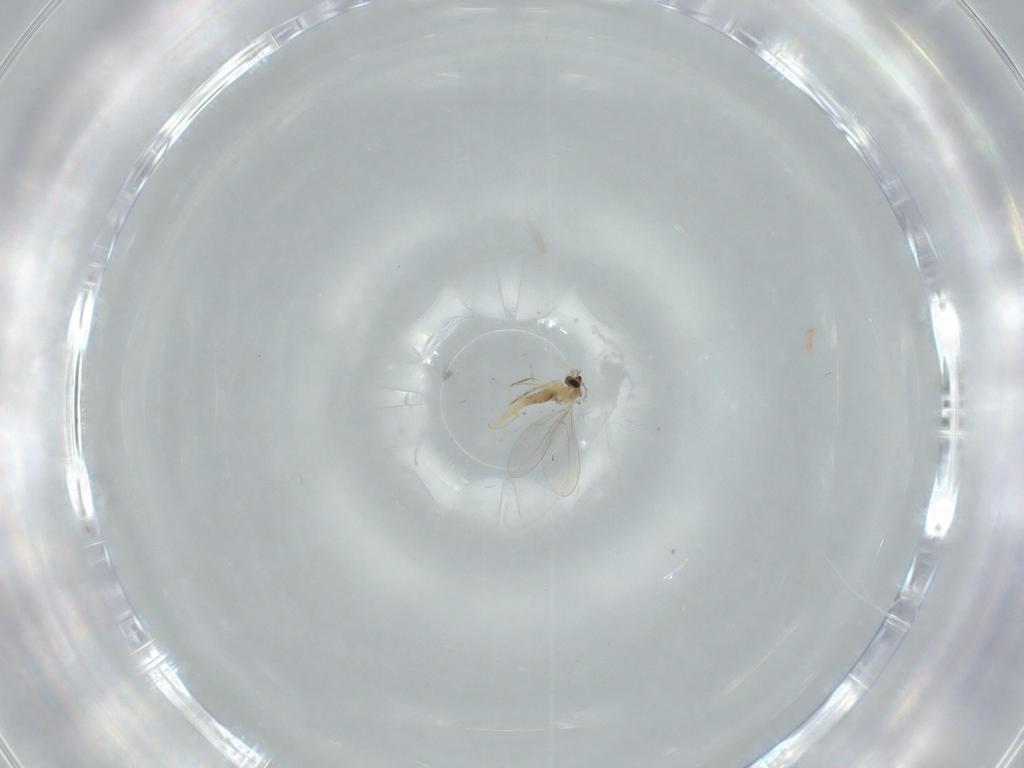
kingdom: Animalia
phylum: Arthropoda
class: Insecta
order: Diptera
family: Cecidomyiidae
